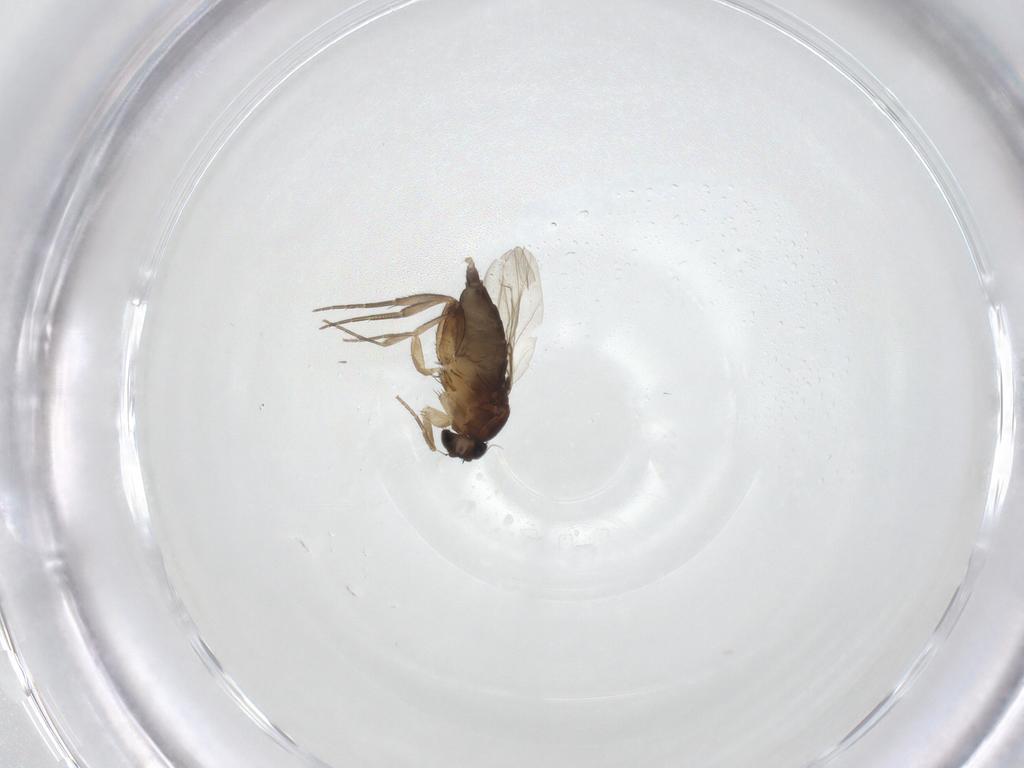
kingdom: Animalia
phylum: Arthropoda
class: Insecta
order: Diptera
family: Phoridae
